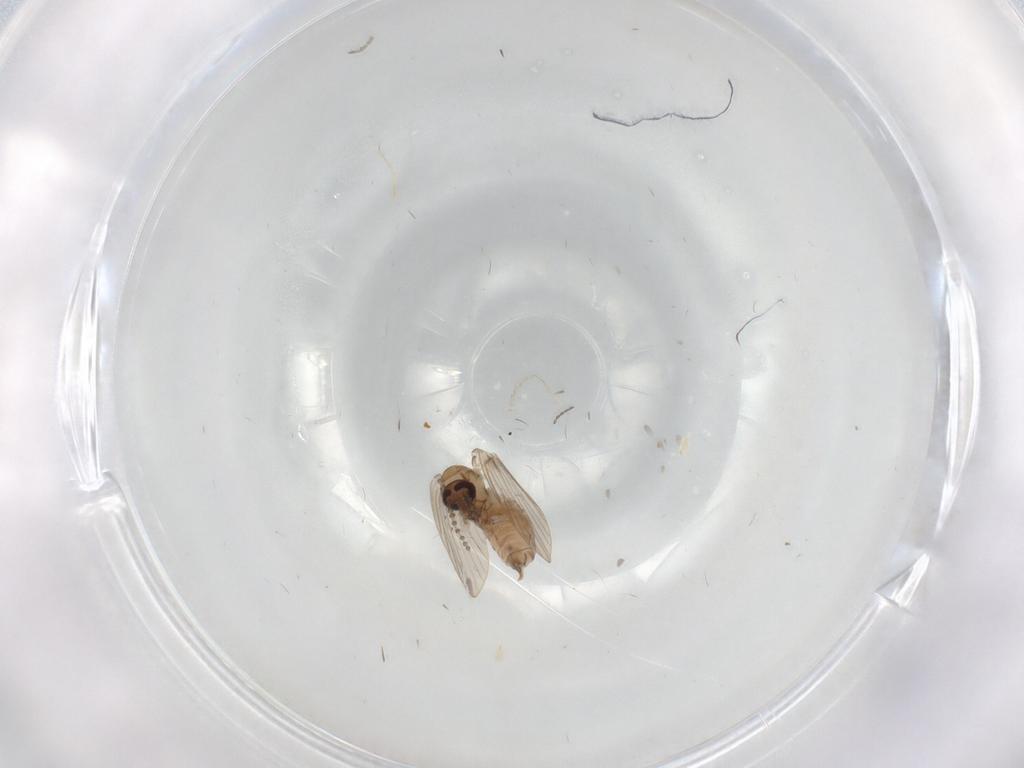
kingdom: Animalia
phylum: Arthropoda
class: Insecta
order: Diptera
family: Psychodidae
